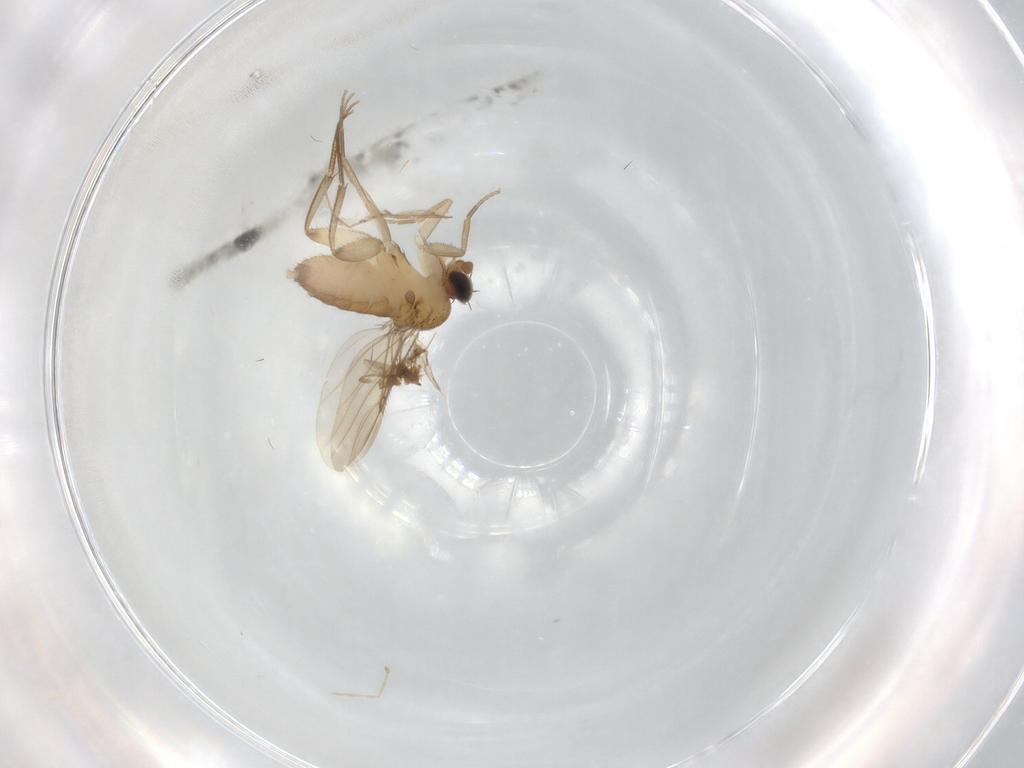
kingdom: Animalia
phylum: Arthropoda
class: Insecta
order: Diptera
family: Phoridae
